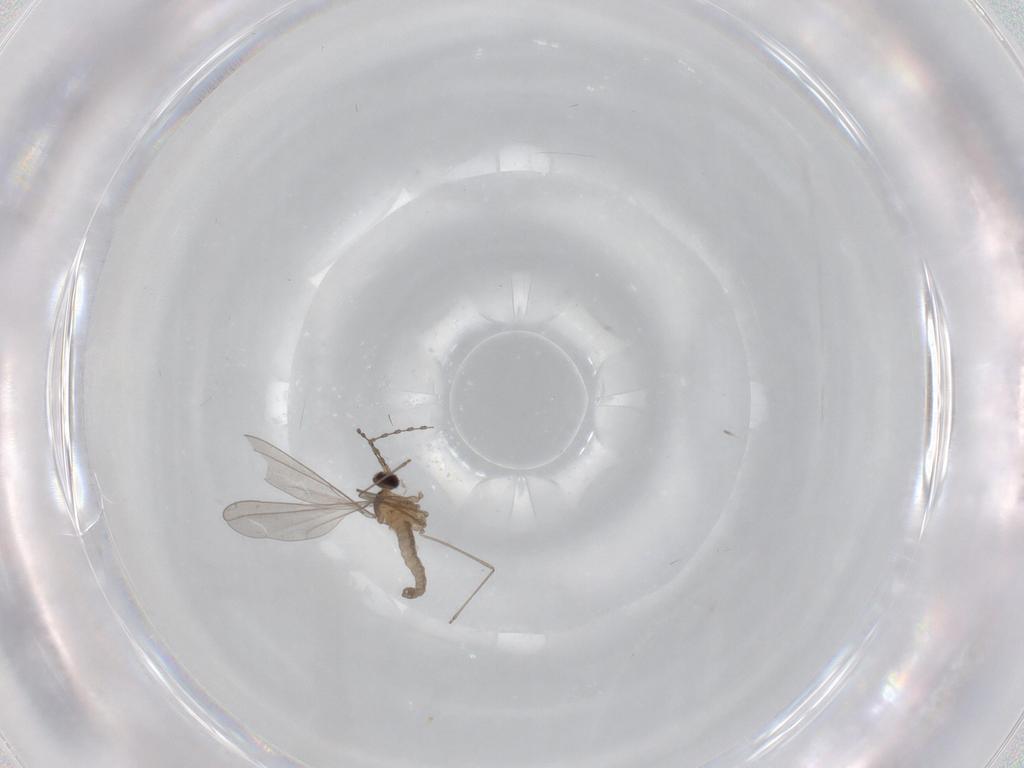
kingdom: Animalia
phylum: Arthropoda
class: Insecta
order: Diptera
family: Cecidomyiidae
